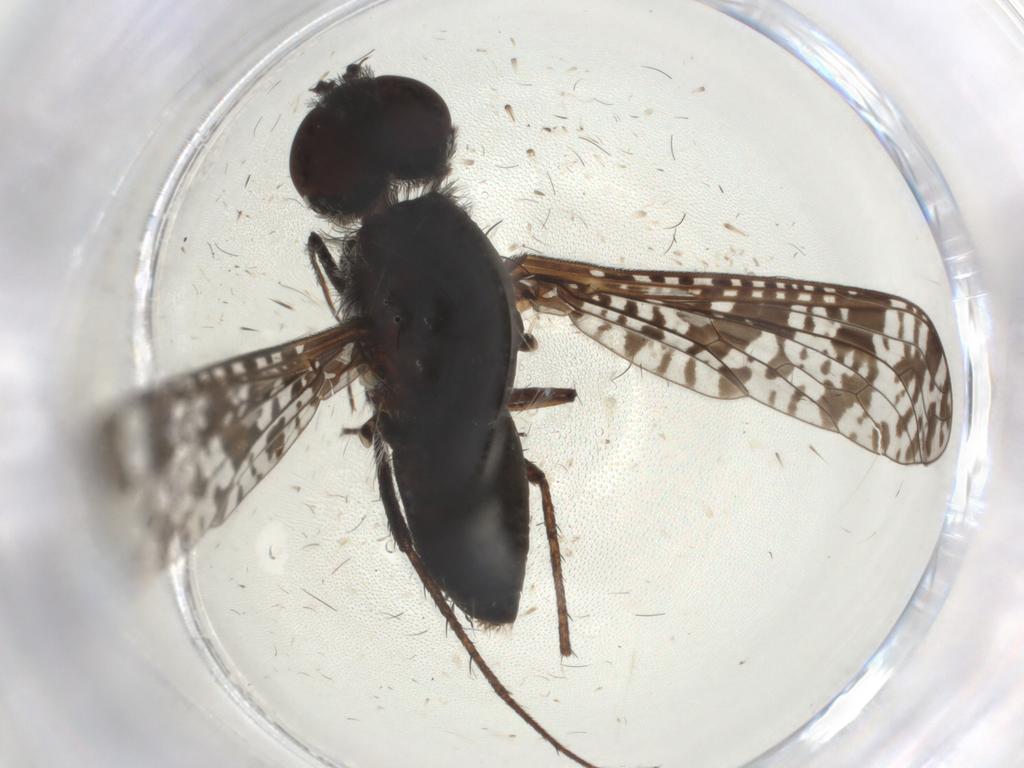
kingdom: Animalia
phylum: Arthropoda
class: Insecta
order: Diptera
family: Bombyliidae
